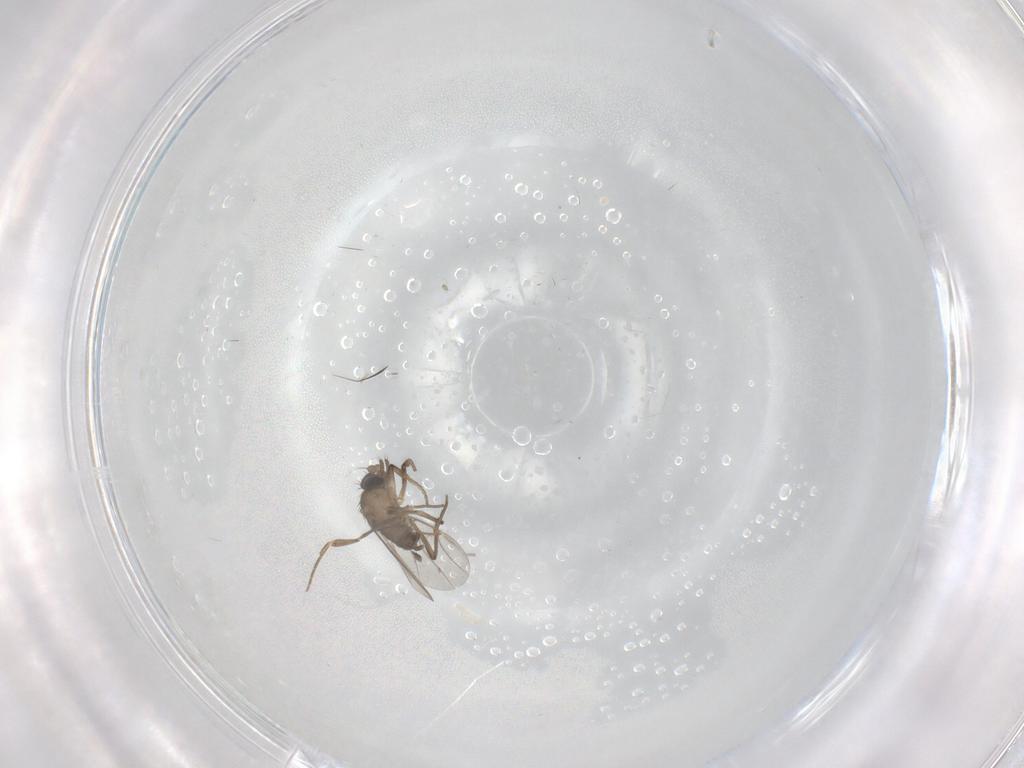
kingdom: Animalia
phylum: Arthropoda
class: Insecta
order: Diptera
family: Phoridae
